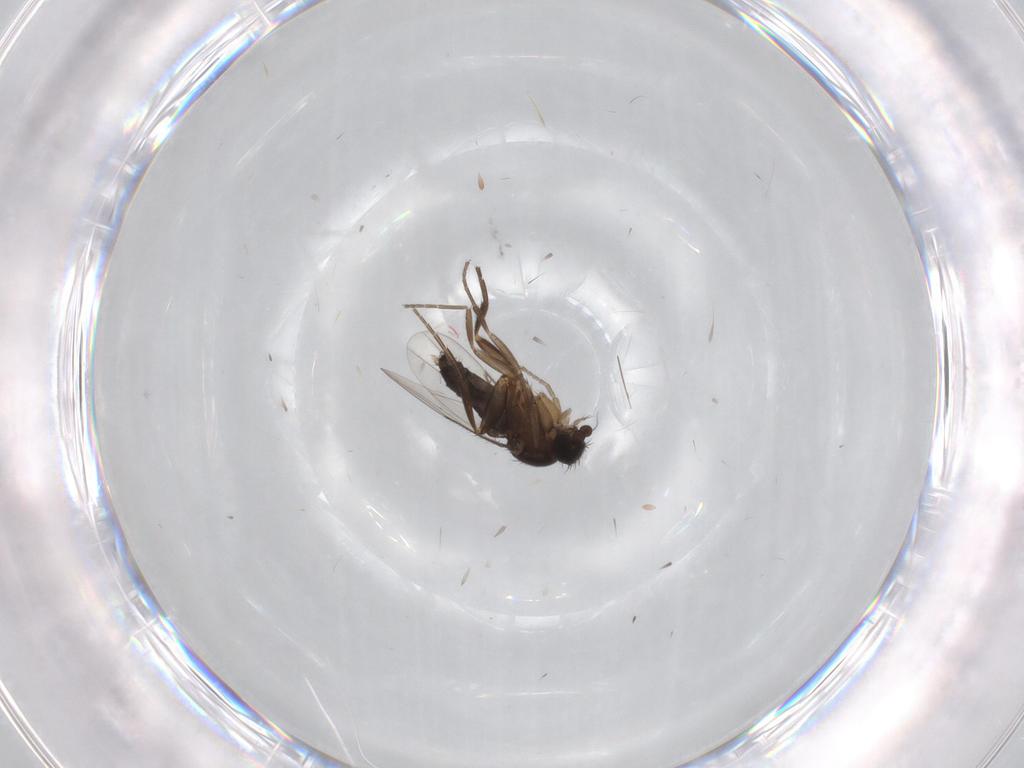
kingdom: Animalia
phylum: Arthropoda
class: Insecta
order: Diptera
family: Phoridae
